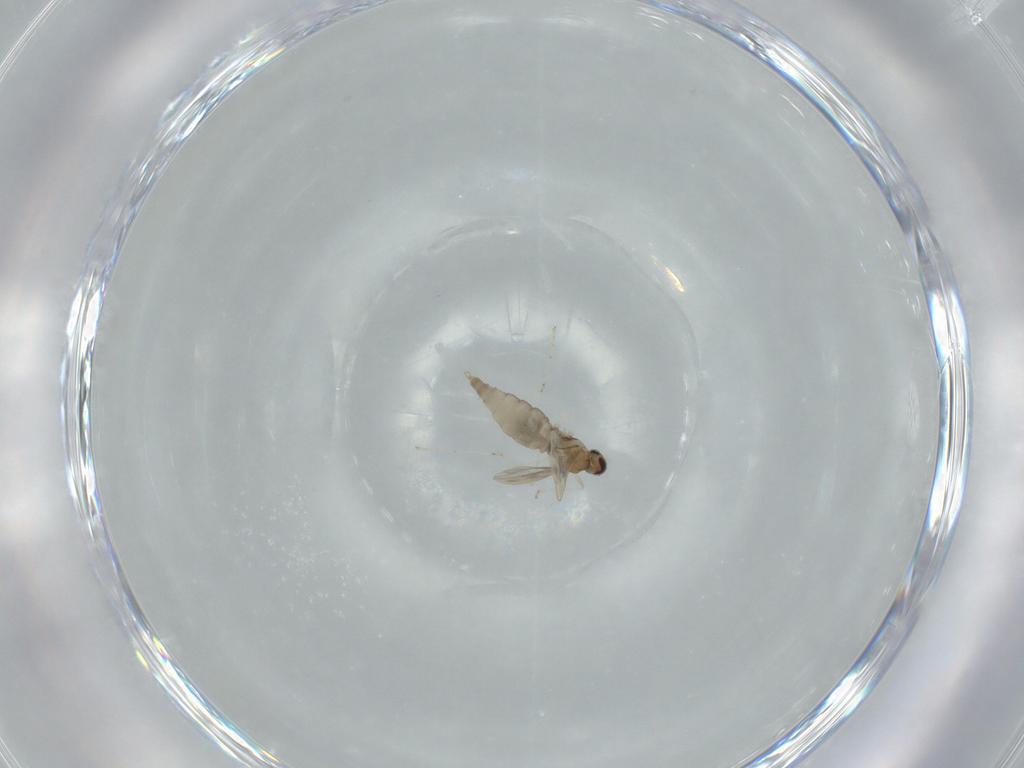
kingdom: Animalia
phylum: Arthropoda
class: Insecta
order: Diptera
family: Cecidomyiidae
